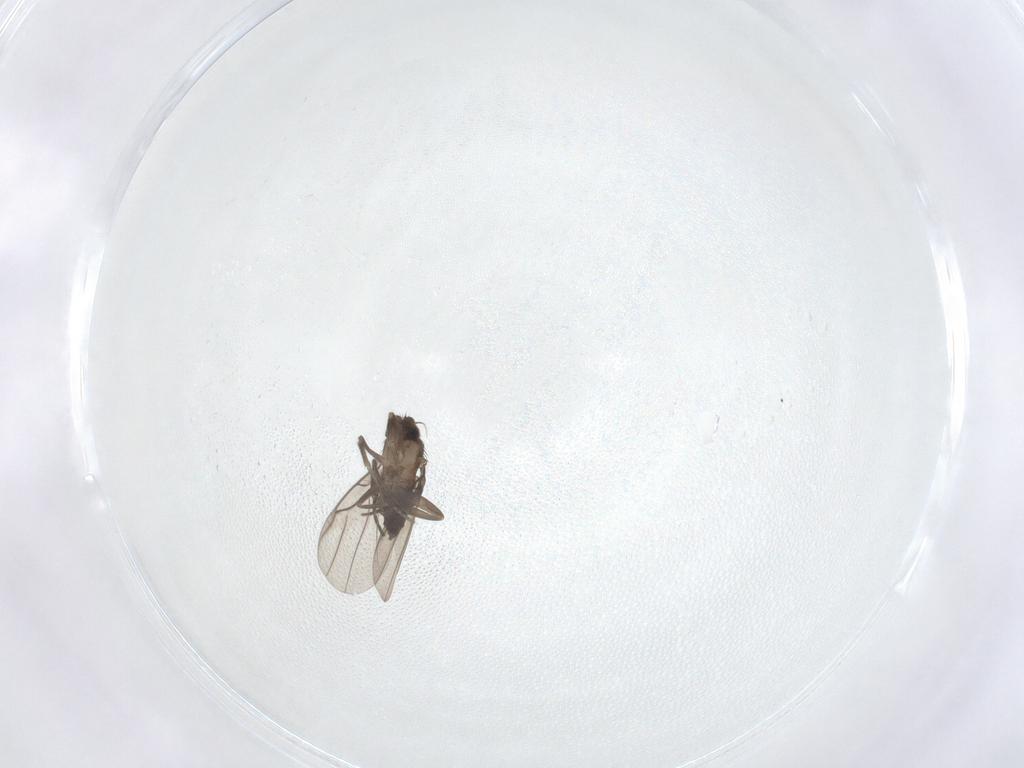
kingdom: Animalia
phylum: Arthropoda
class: Insecta
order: Diptera
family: Phoridae
